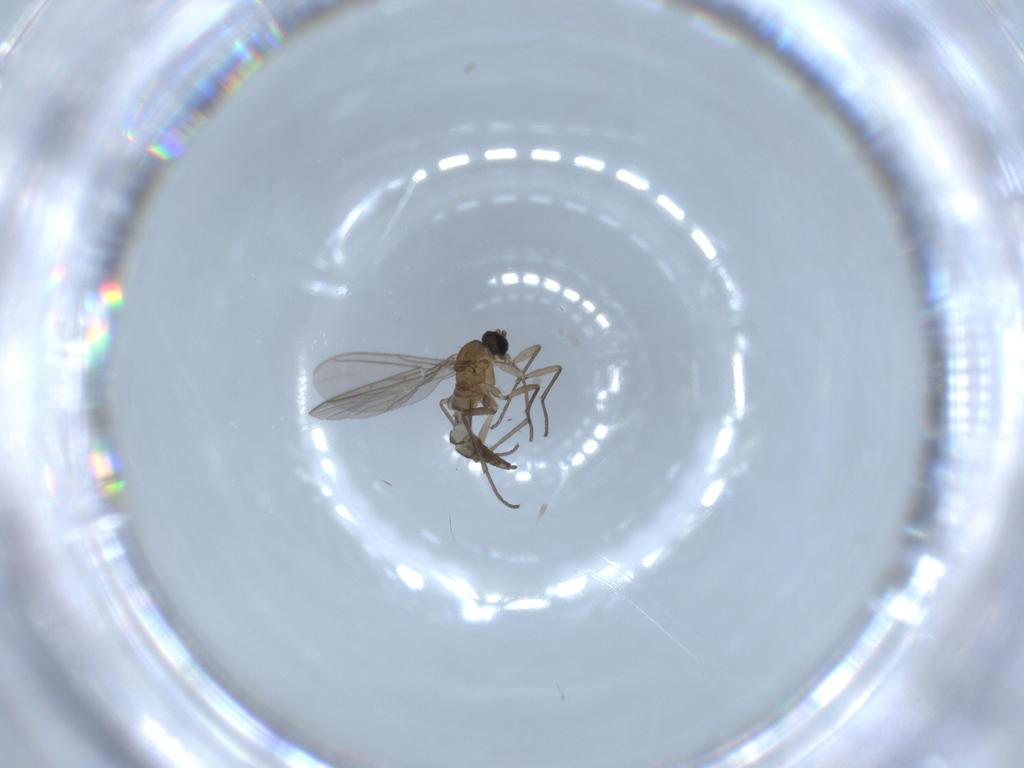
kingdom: Animalia
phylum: Arthropoda
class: Insecta
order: Diptera
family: Sciaridae
